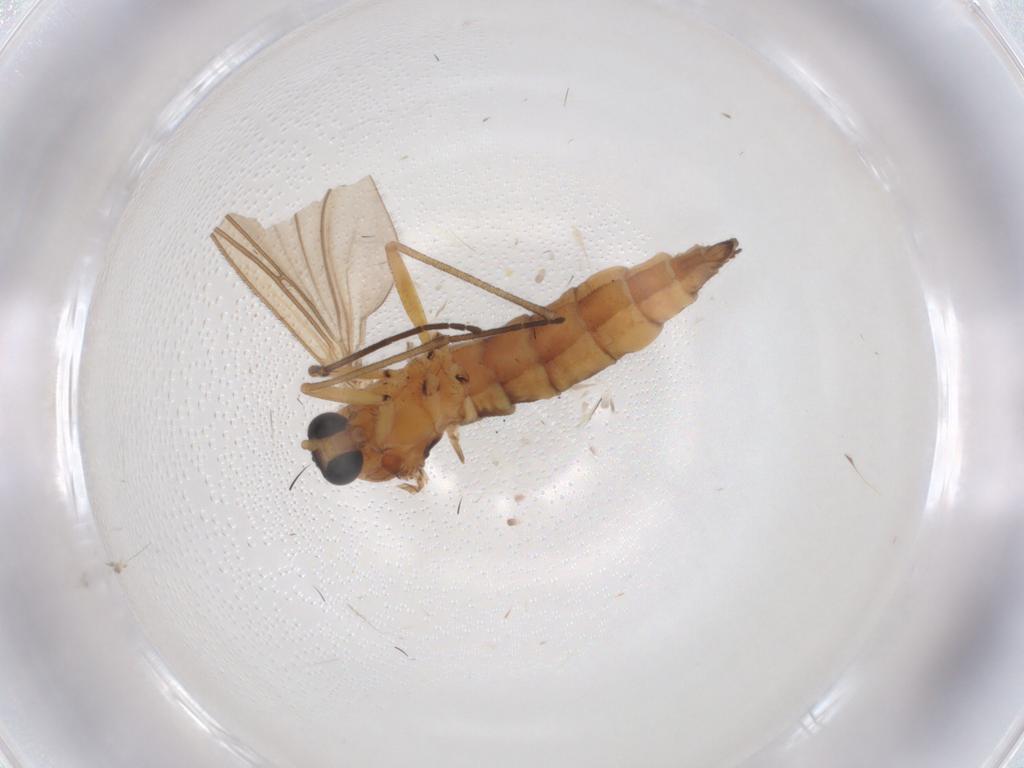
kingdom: Animalia
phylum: Arthropoda
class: Insecta
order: Diptera
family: Sciaridae
